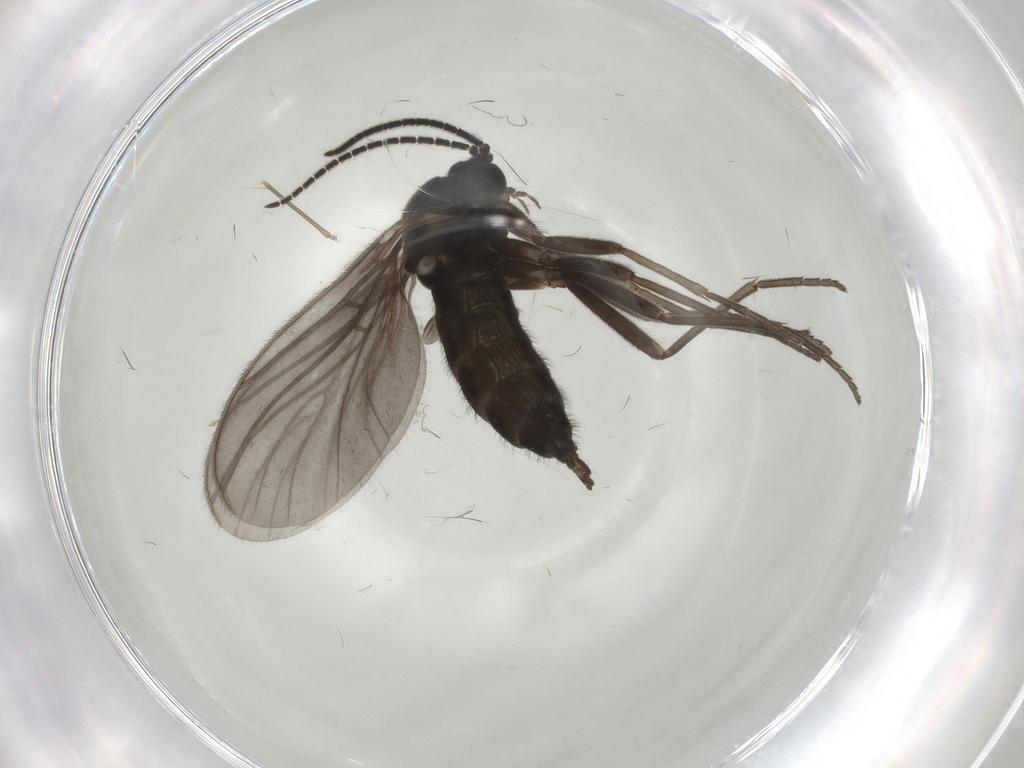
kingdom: Animalia
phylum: Arthropoda
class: Insecta
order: Diptera
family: Sciaridae
